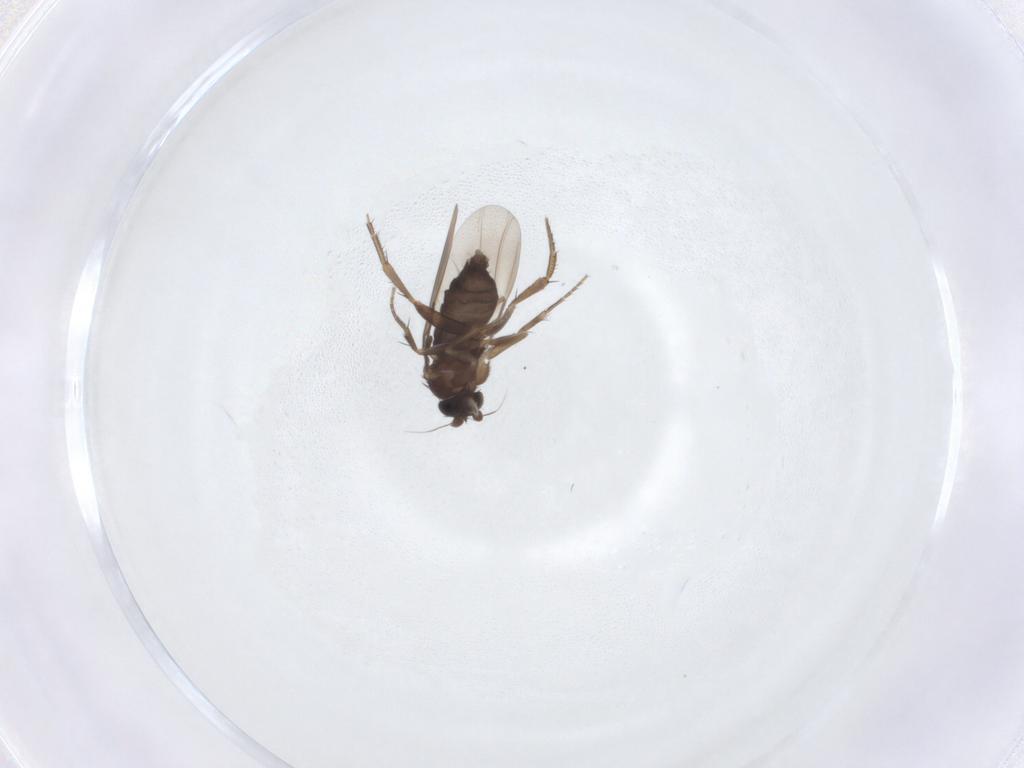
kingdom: Animalia
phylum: Arthropoda
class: Insecta
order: Diptera
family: Phoridae
